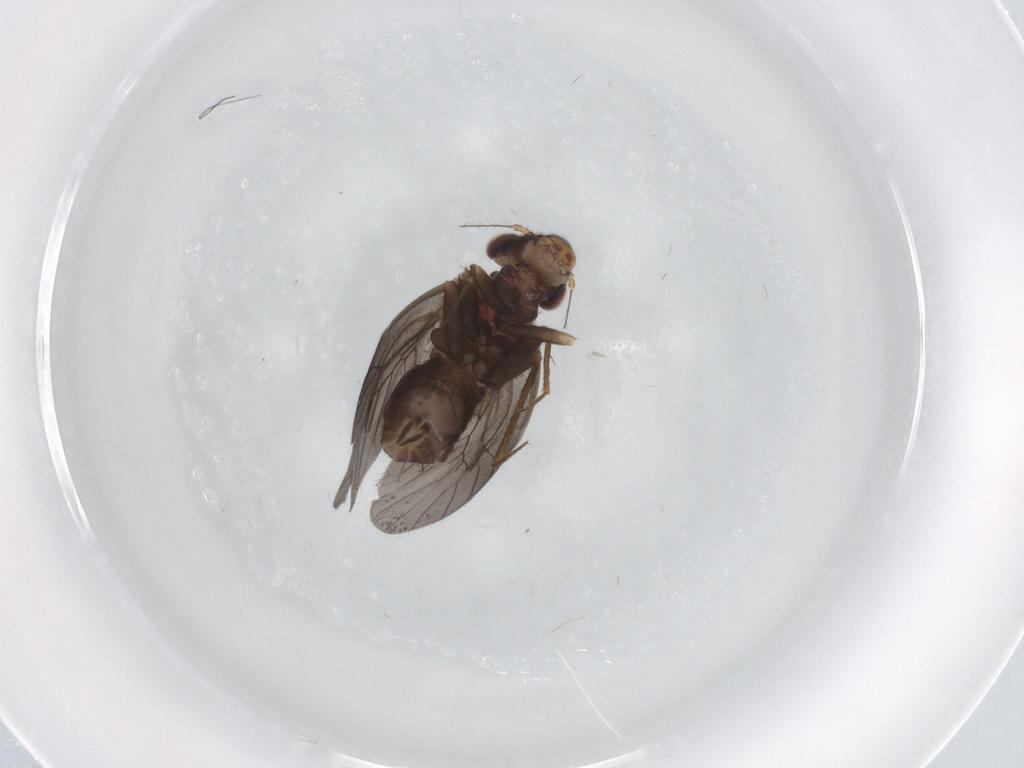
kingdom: Animalia
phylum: Arthropoda
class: Insecta
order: Psocodea
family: Lepidopsocidae
